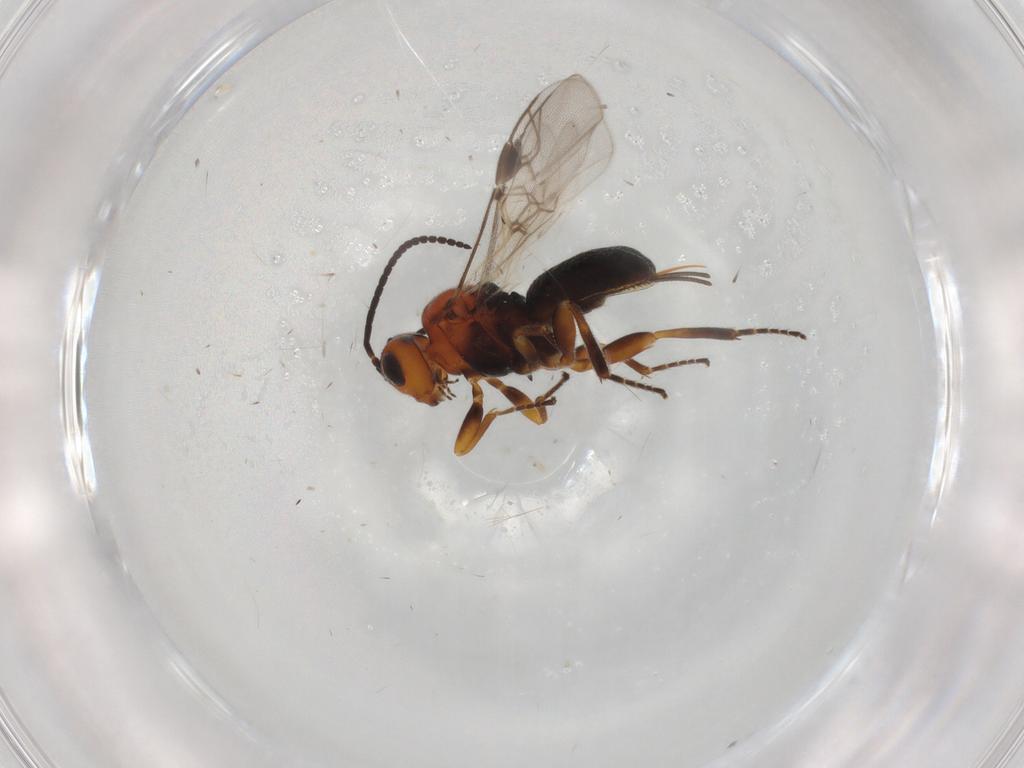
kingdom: Animalia
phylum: Arthropoda
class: Insecta
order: Hymenoptera
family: Braconidae
